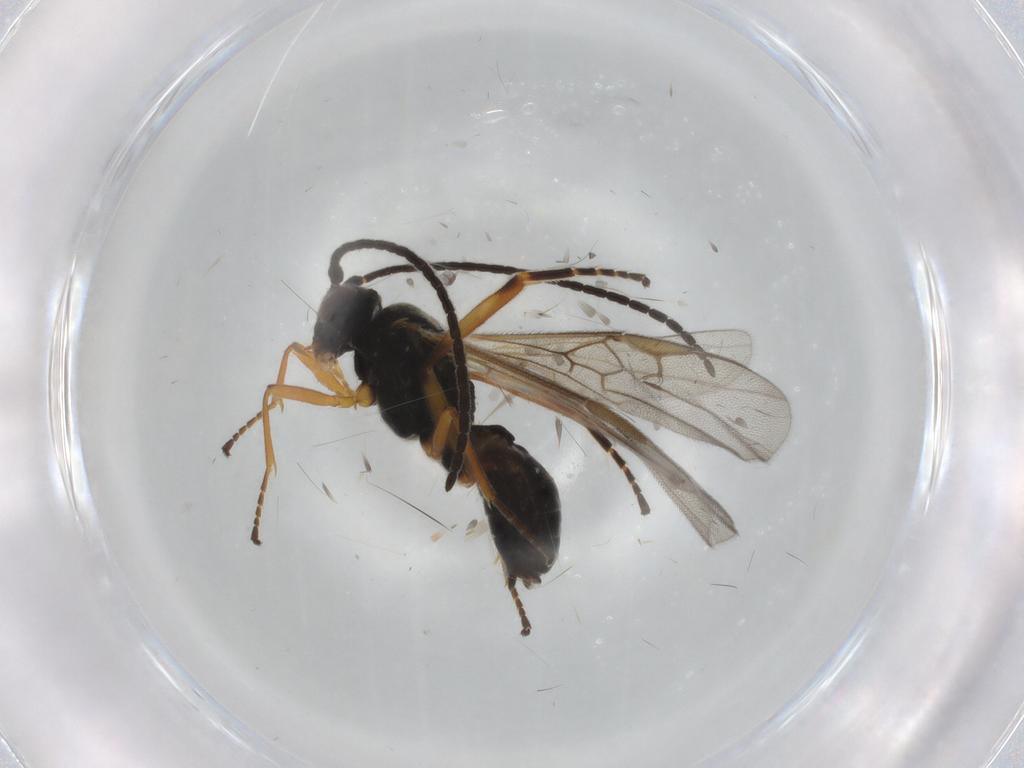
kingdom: Animalia
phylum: Arthropoda
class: Insecta
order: Hymenoptera
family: Braconidae
